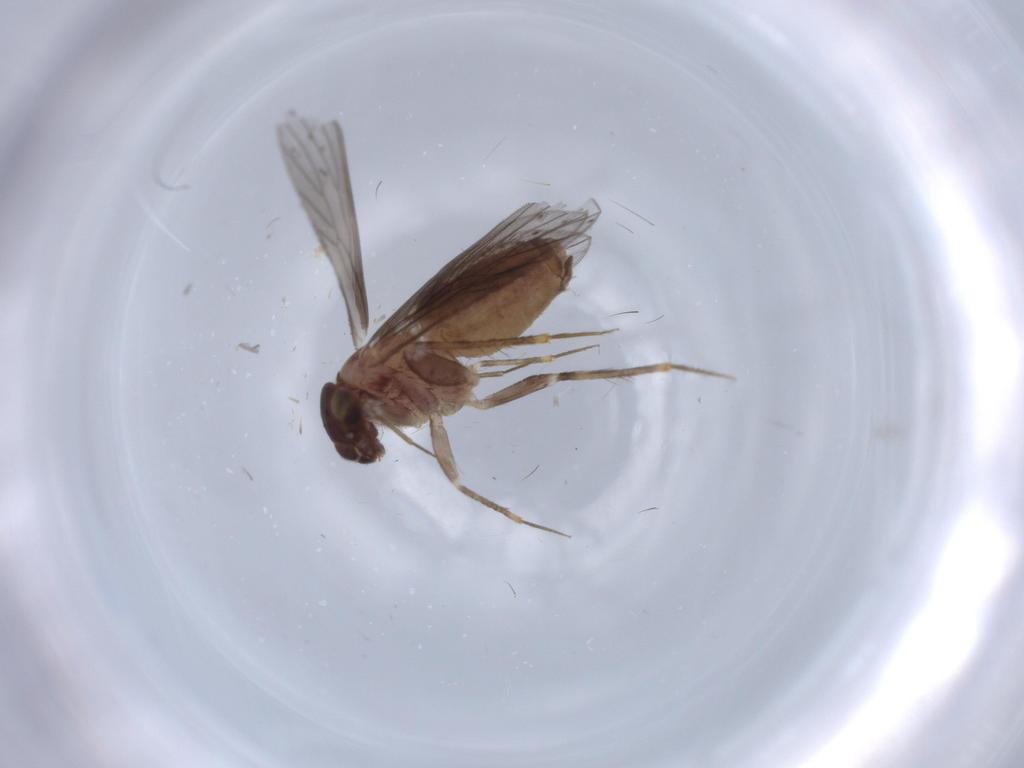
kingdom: Animalia
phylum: Arthropoda
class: Insecta
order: Psocodea
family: Lepidopsocidae
